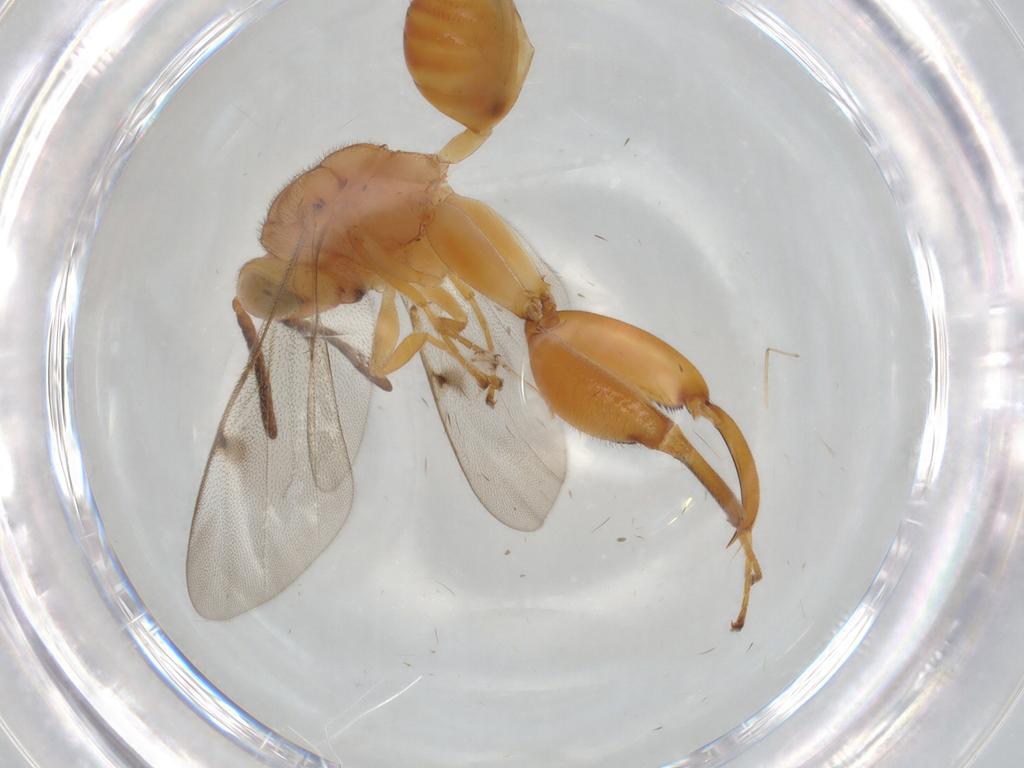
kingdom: Animalia
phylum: Arthropoda
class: Insecta
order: Hymenoptera
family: Chalcididae
